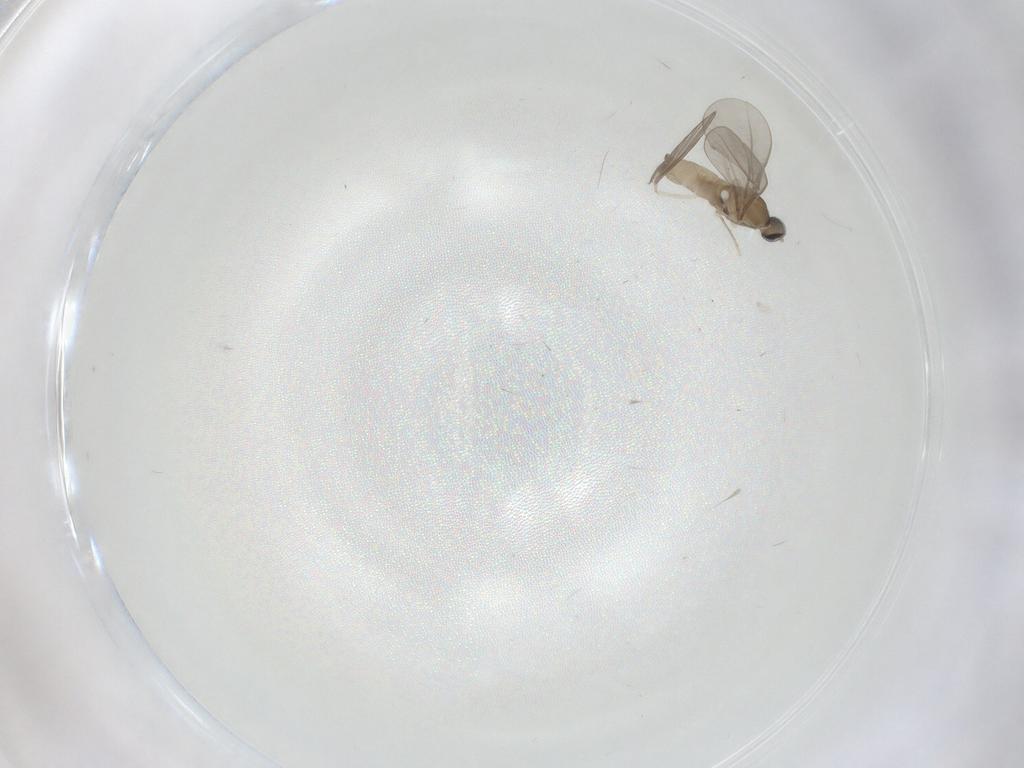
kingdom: Animalia
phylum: Arthropoda
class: Insecta
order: Diptera
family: Cecidomyiidae
